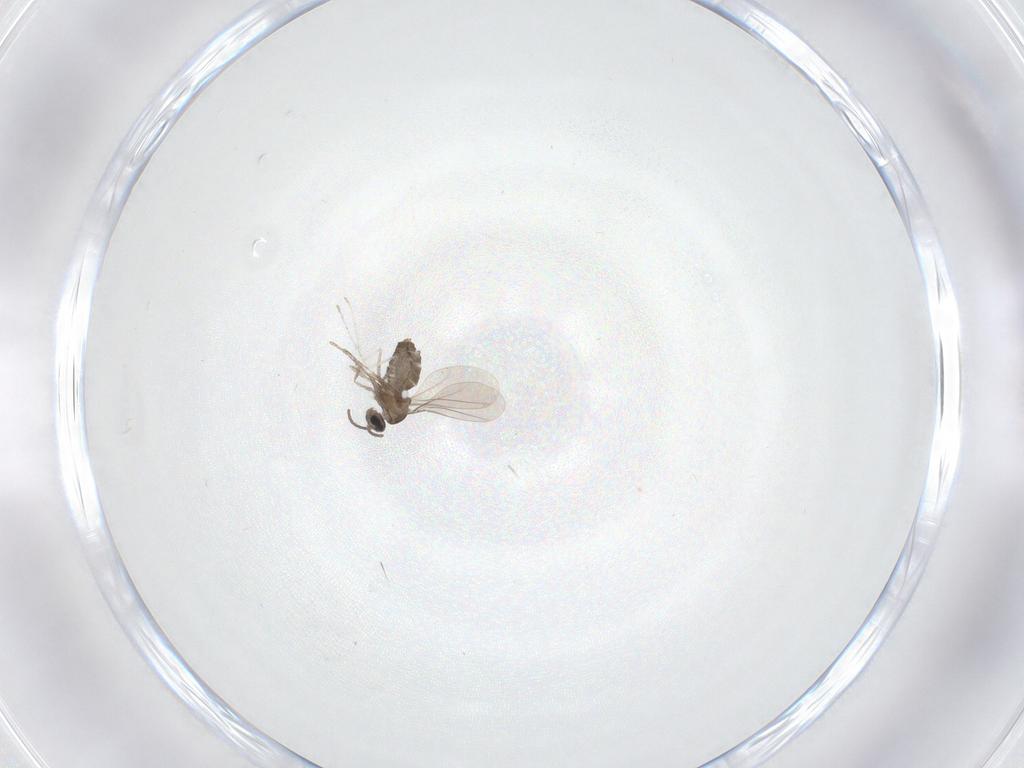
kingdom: Animalia
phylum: Arthropoda
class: Insecta
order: Diptera
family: Cecidomyiidae
